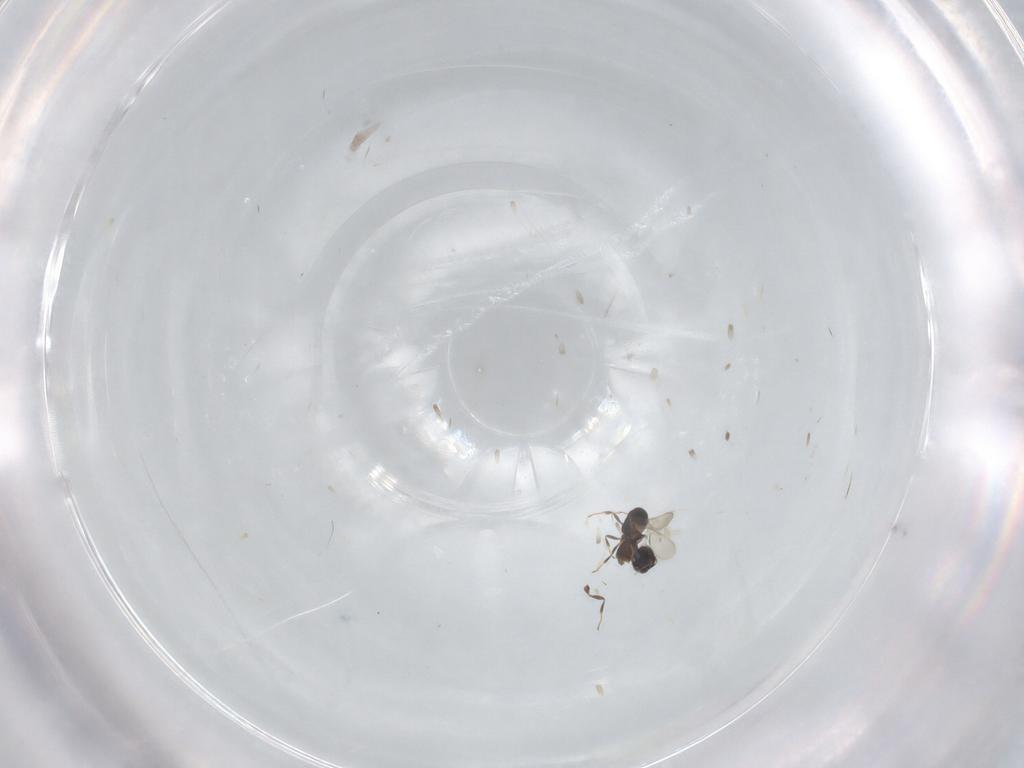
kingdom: Animalia
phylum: Arthropoda
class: Insecta
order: Hymenoptera
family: Scelionidae
